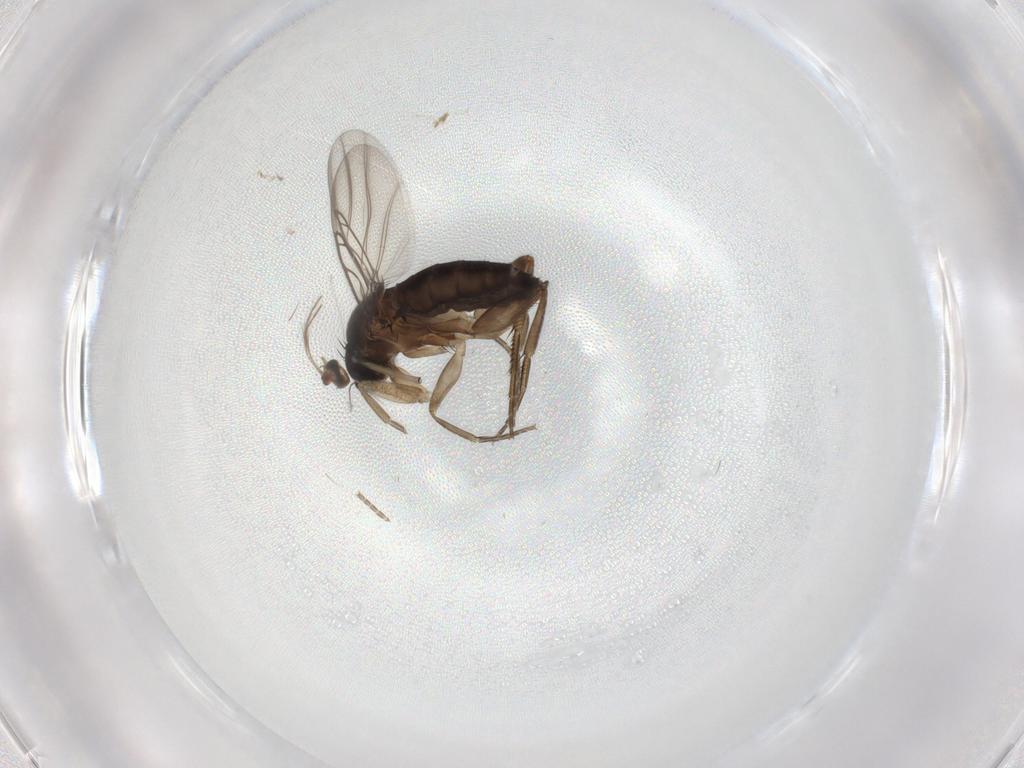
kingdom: Animalia
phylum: Arthropoda
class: Insecta
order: Diptera
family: Phoridae
